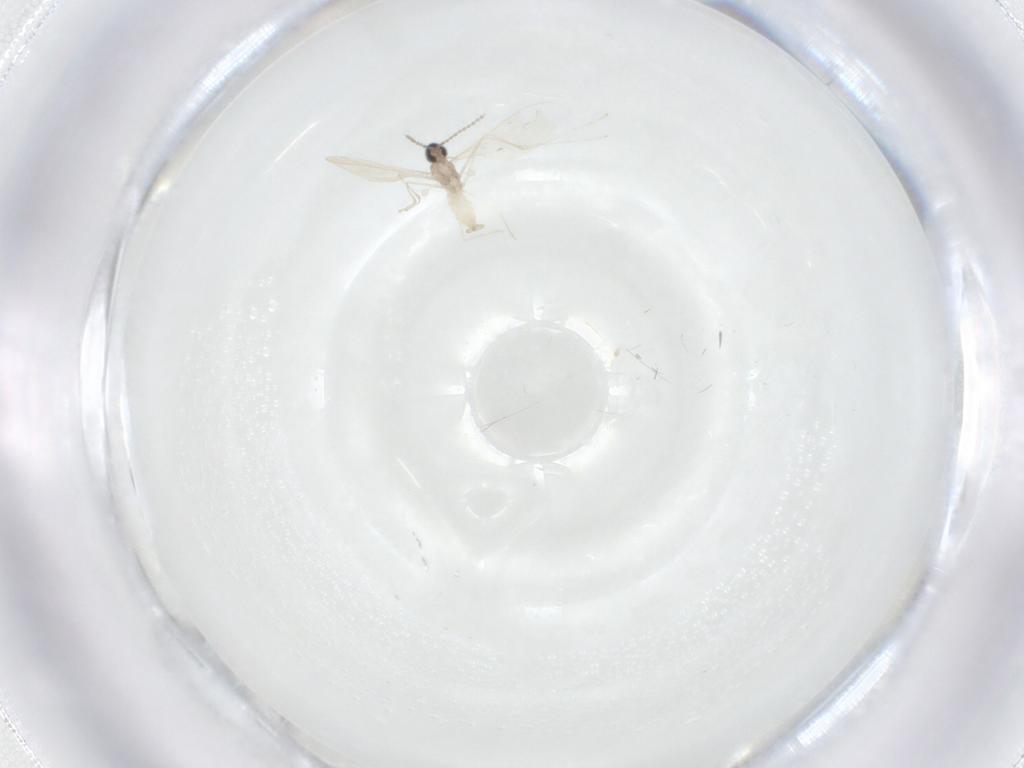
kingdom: Animalia
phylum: Arthropoda
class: Insecta
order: Diptera
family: Cecidomyiidae
